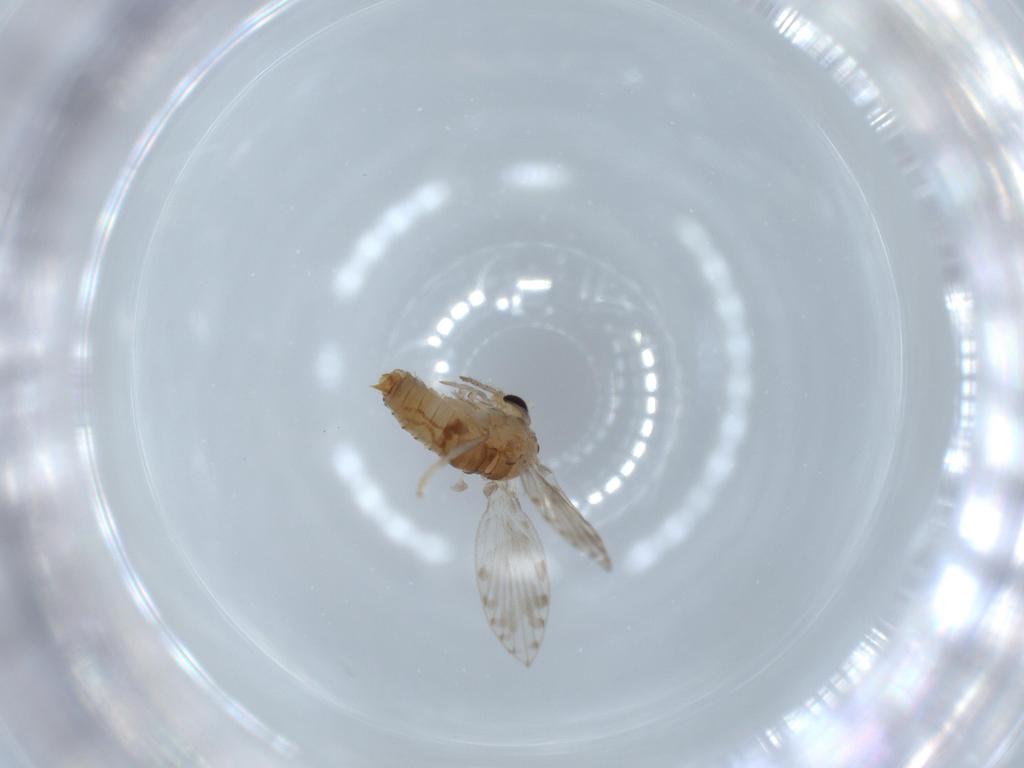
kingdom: Animalia
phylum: Arthropoda
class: Insecta
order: Diptera
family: Psychodidae
